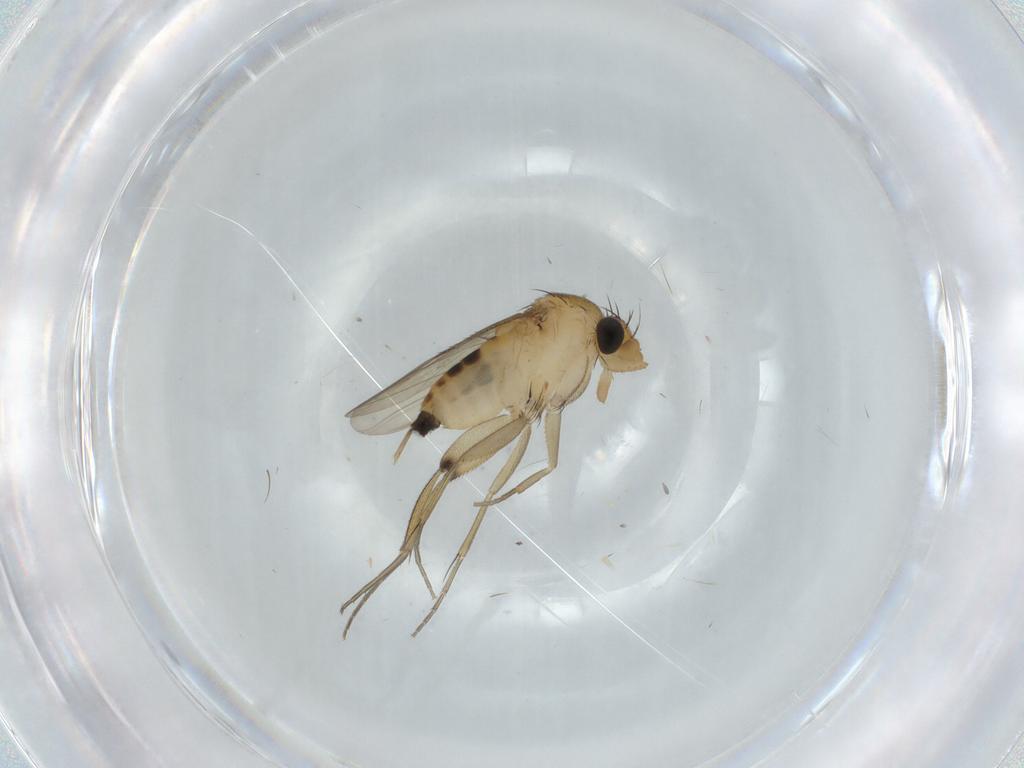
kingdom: Animalia
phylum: Arthropoda
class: Insecta
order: Diptera
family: Phoridae
